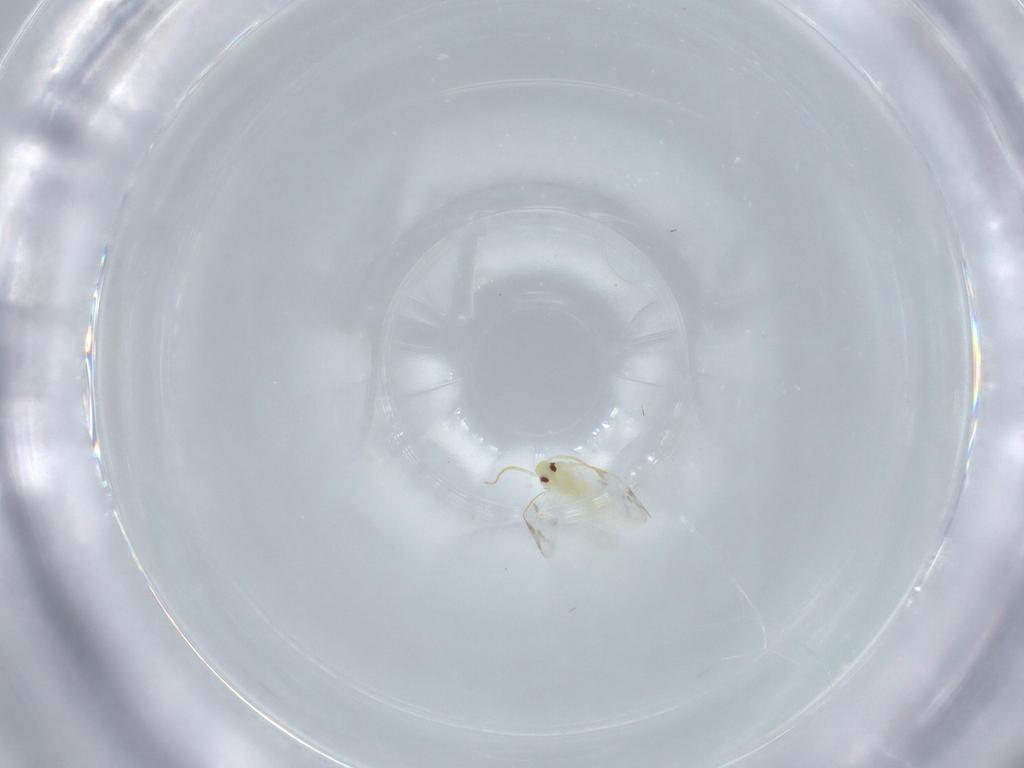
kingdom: Animalia
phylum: Arthropoda
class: Insecta
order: Hemiptera
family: Aleyrodidae
